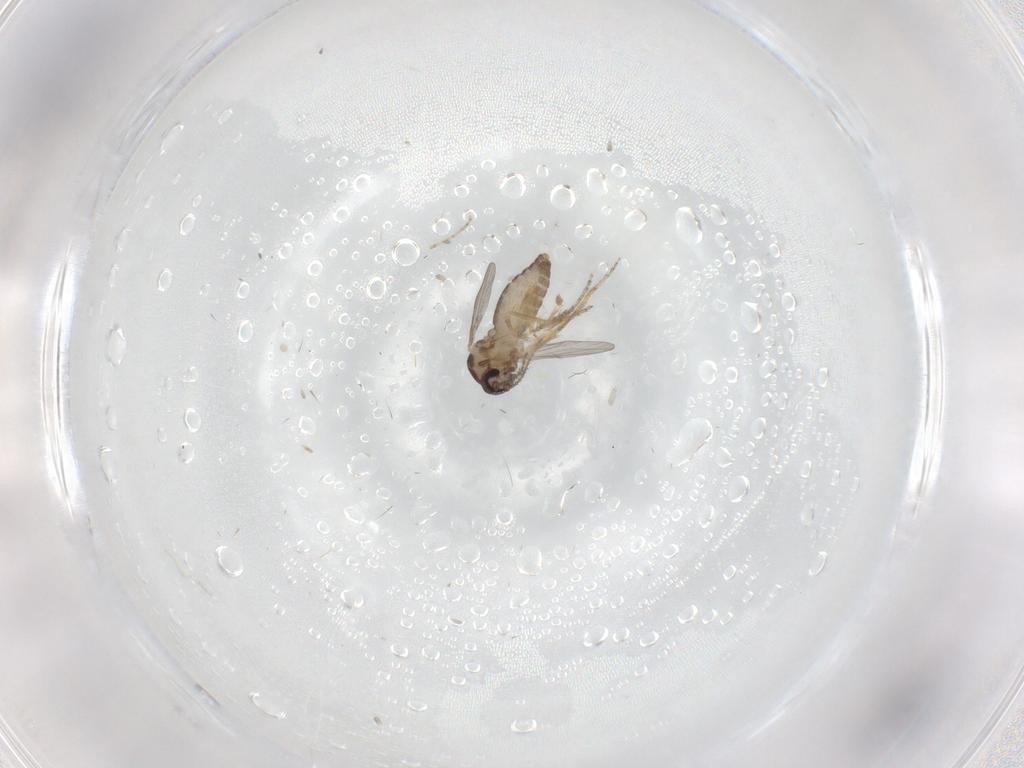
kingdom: Animalia
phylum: Arthropoda
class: Insecta
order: Diptera
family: Ceratopogonidae
